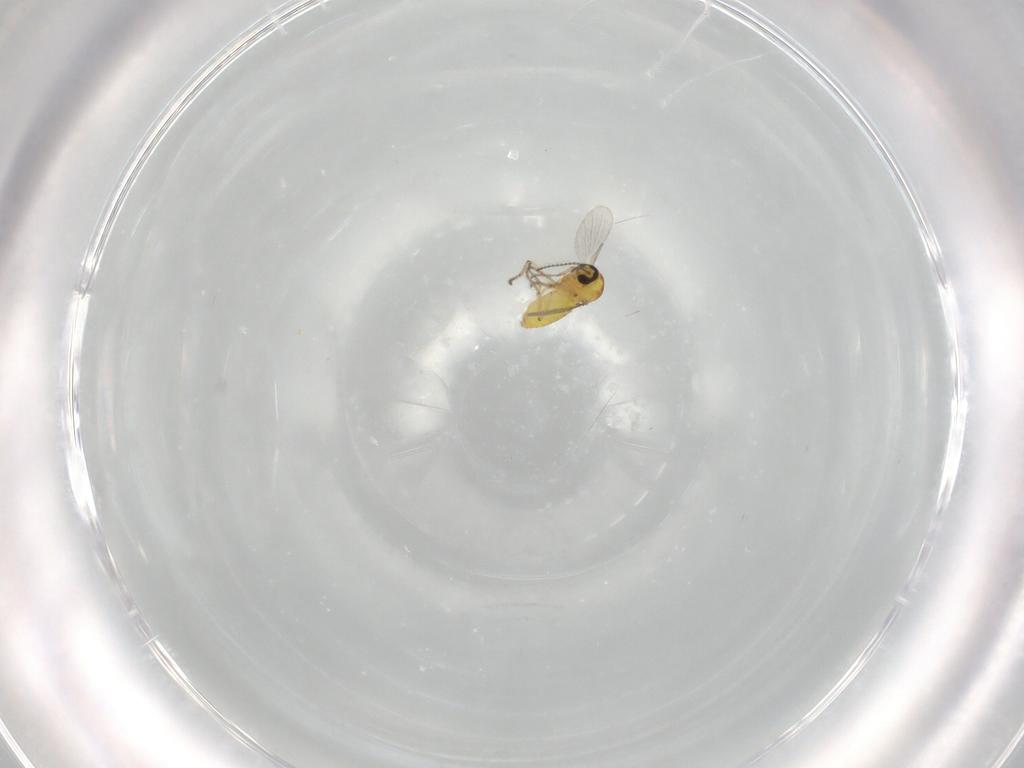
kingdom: Animalia
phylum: Arthropoda
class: Insecta
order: Diptera
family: Ceratopogonidae
